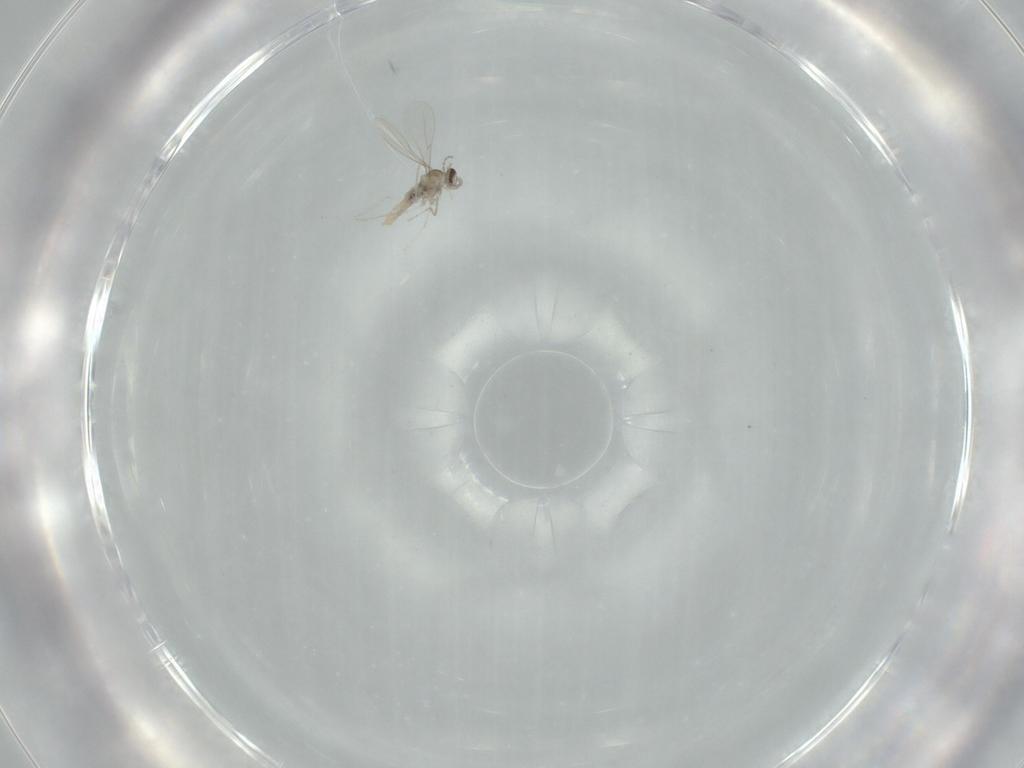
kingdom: Animalia
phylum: Arthropoda
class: Insecta
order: Diptera
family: Cecidomyiidae
